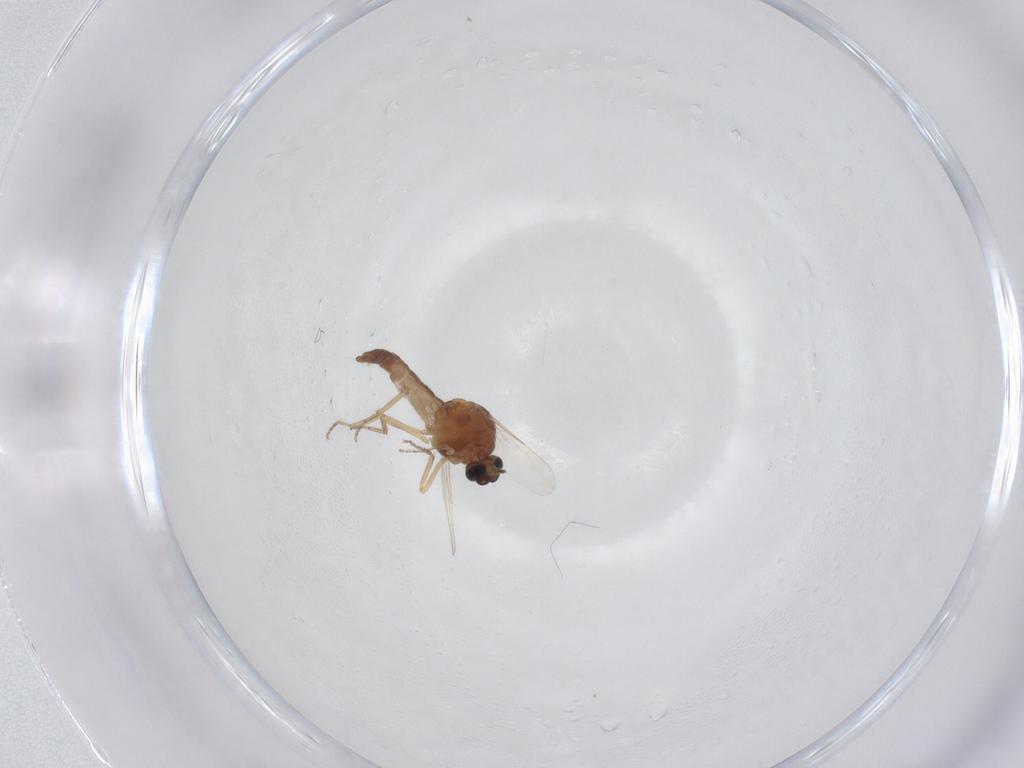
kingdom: Animalia
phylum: Arthropoda
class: Insecta
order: Diptera
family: Ceratopogonidae
